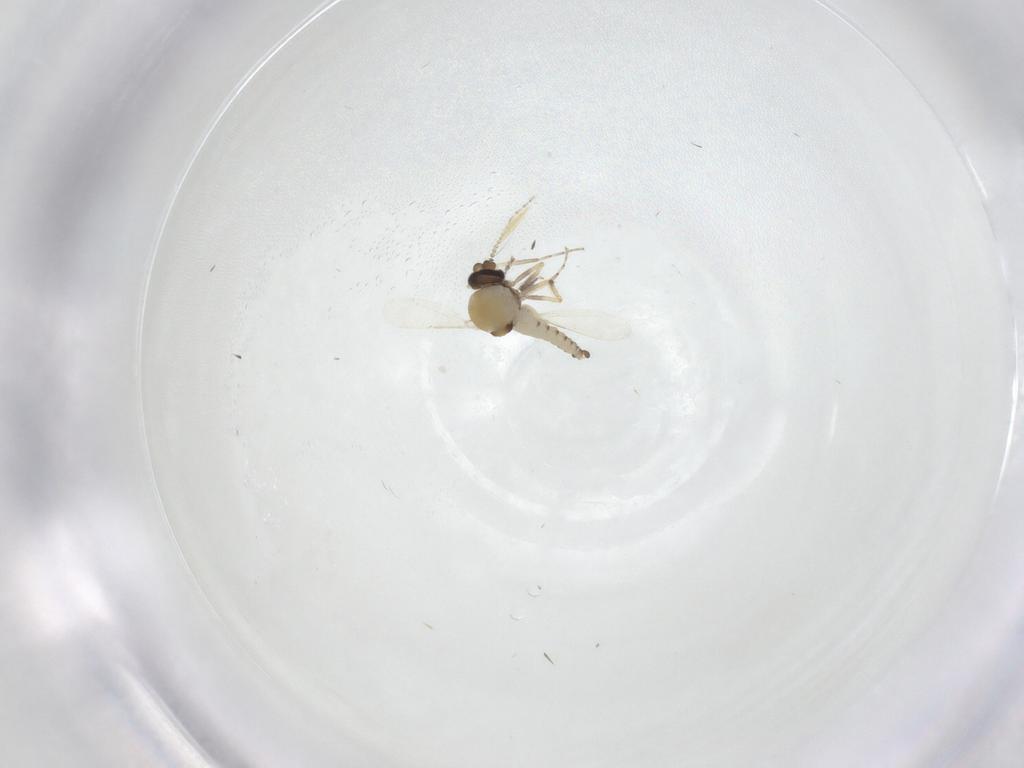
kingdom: Animalia
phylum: Arthropoda
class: Insecta
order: Diptera
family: Ceratopogonidae
